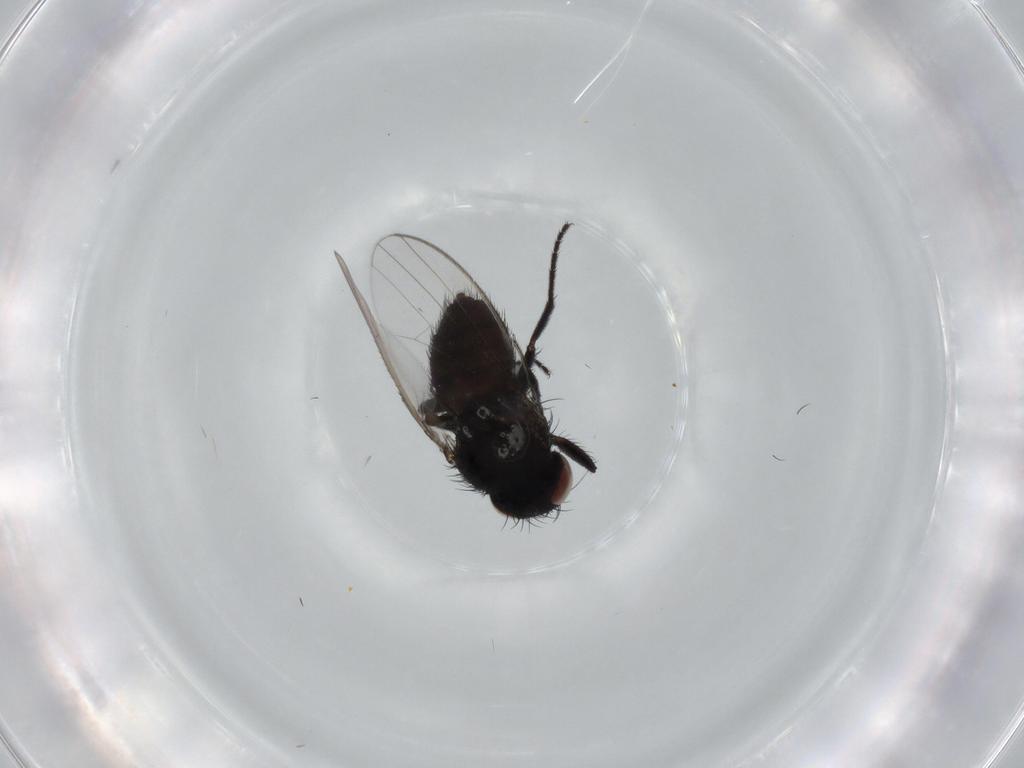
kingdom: Animalia
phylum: Arthropoda
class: Insecta
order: Diptera
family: Milichiidae
